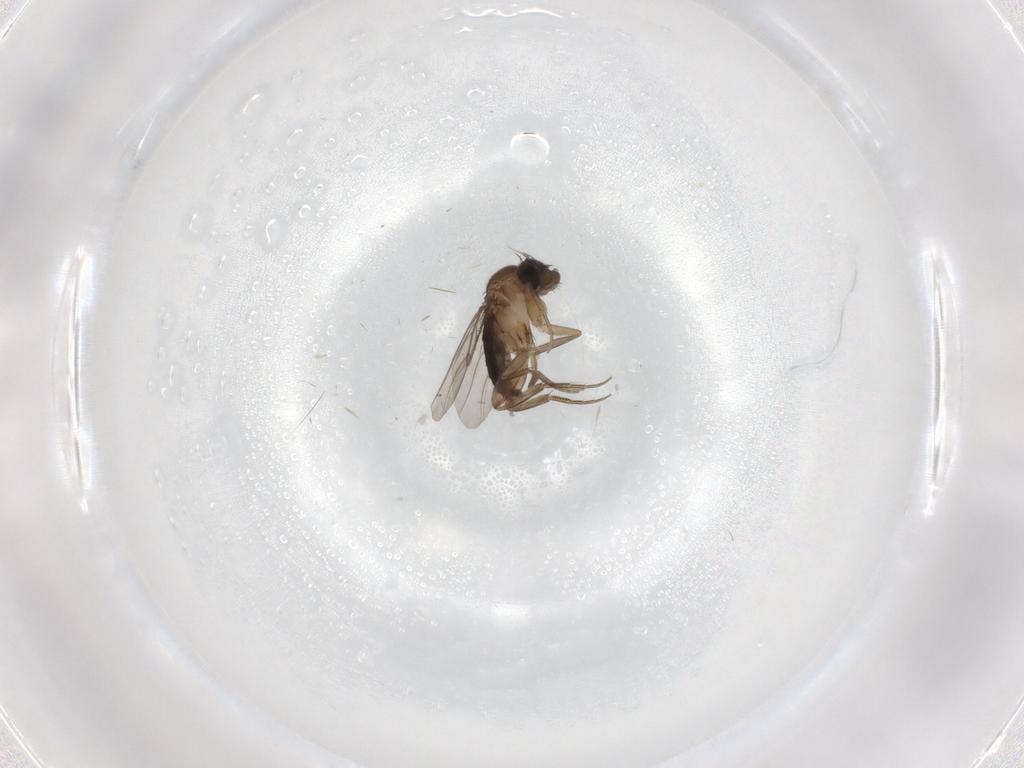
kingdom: Animalia
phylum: Arthropoda
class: Insecta
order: Diptera
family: Phoridae
